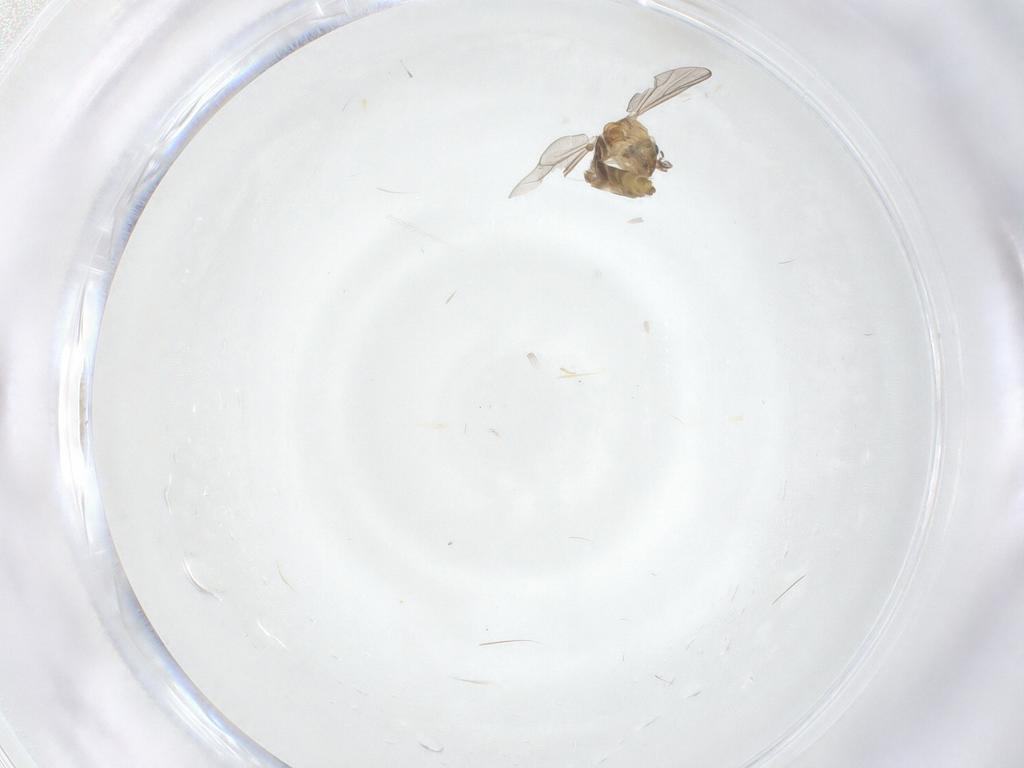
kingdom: Animalia
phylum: Arthropoda
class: Insecta
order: Diptera
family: Chironomidae
